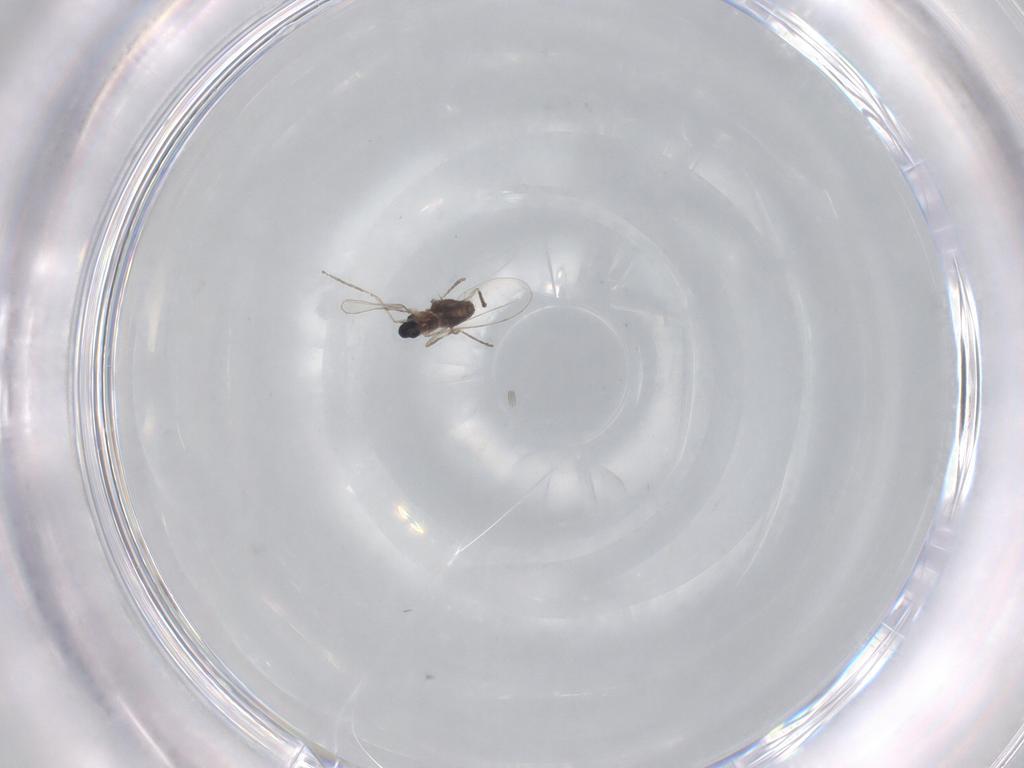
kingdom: Animalia
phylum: Arthropoda
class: Insecta
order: Diptera
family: Cecidomyiidae
